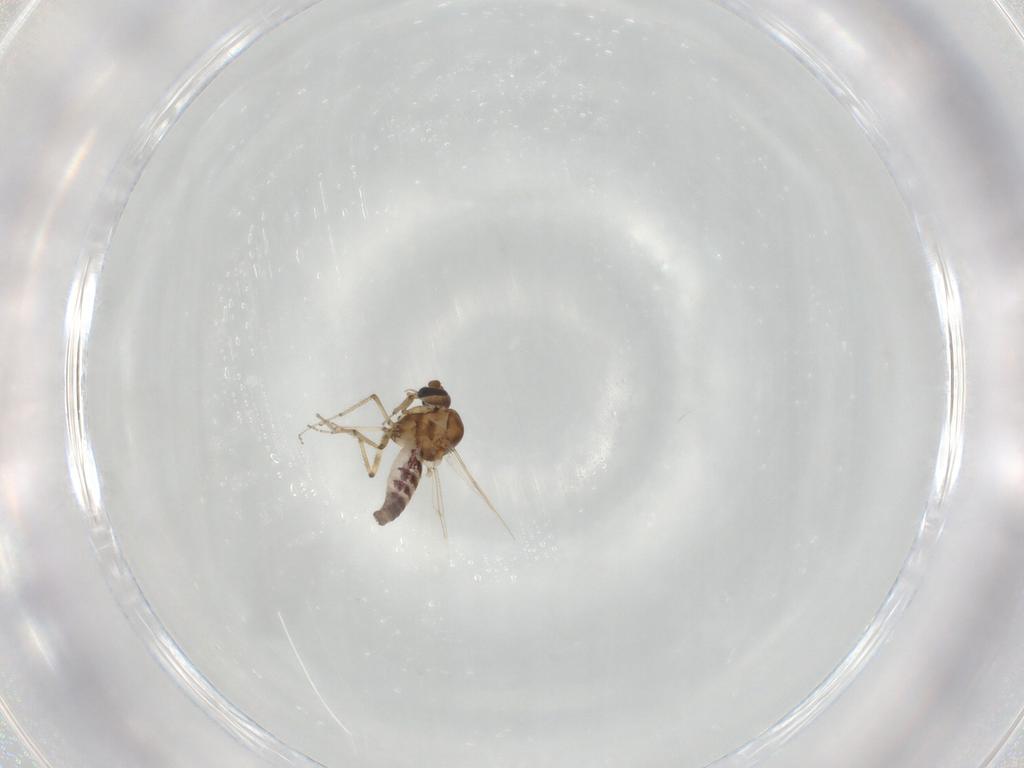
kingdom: Animalia
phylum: Arthropoda
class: Insecta
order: Diptera
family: Ceratopogonidae
